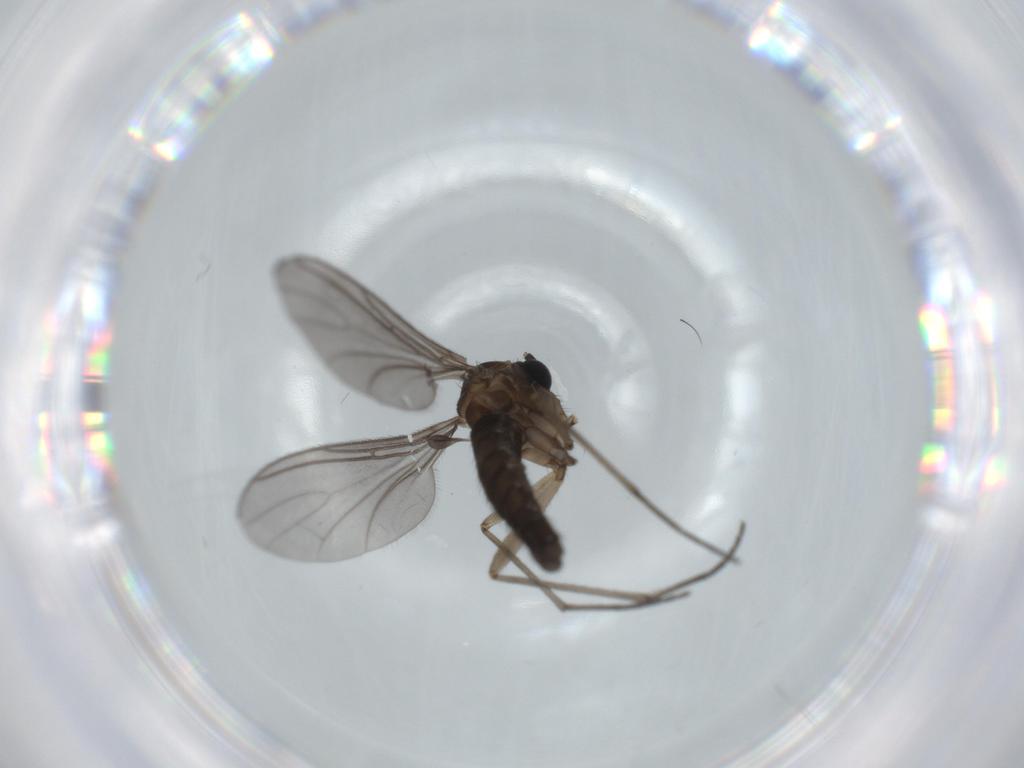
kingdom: Animalia
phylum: Arthropoda
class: Insecta
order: Diptera
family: Sciaridae
